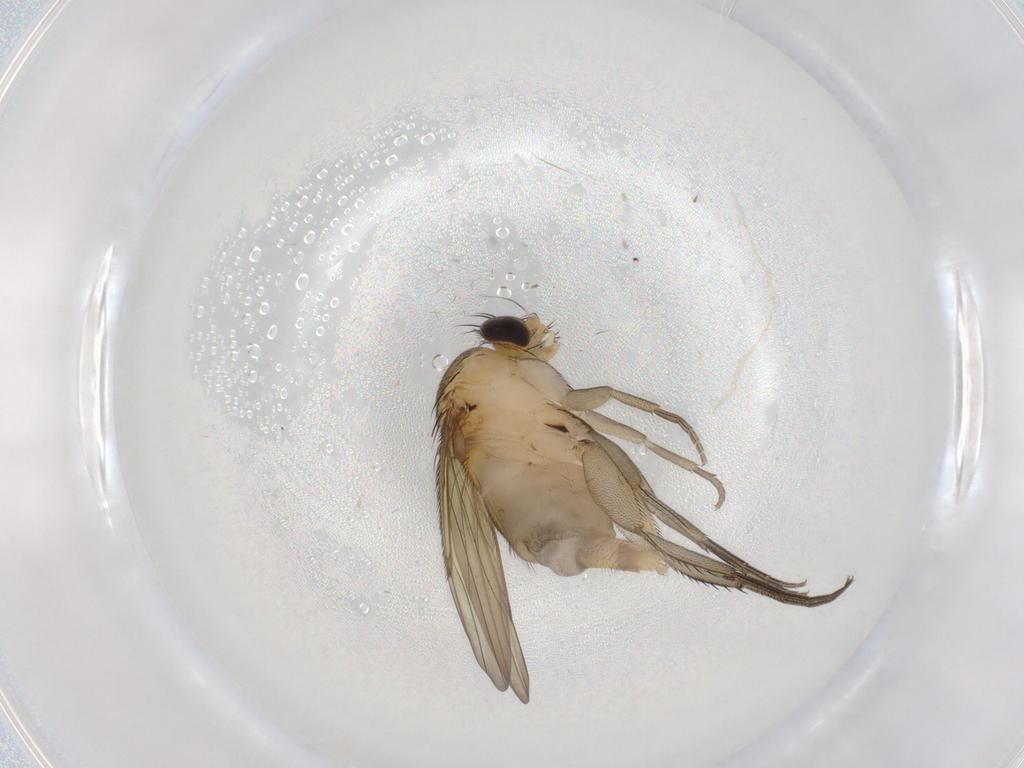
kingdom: Animalia
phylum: Arthropoda
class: Insecta
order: Diptera
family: Phoridae
